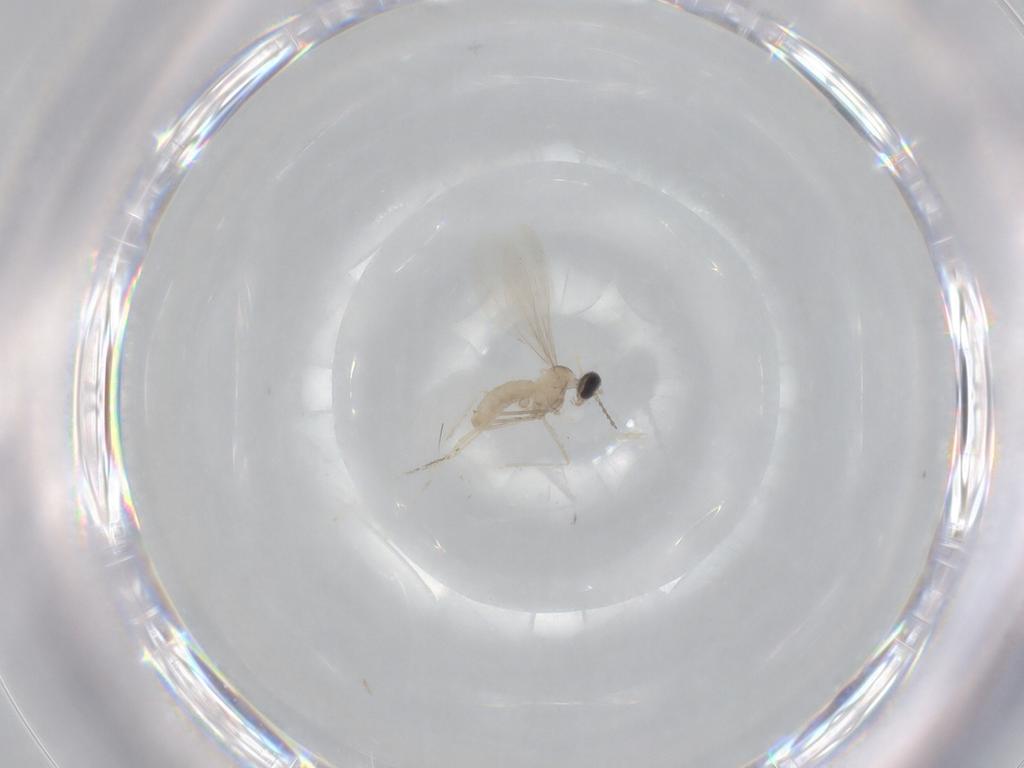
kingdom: Animalia
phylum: Arthropoda
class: Insecta
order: Diptera
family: Cecidomyiidae
